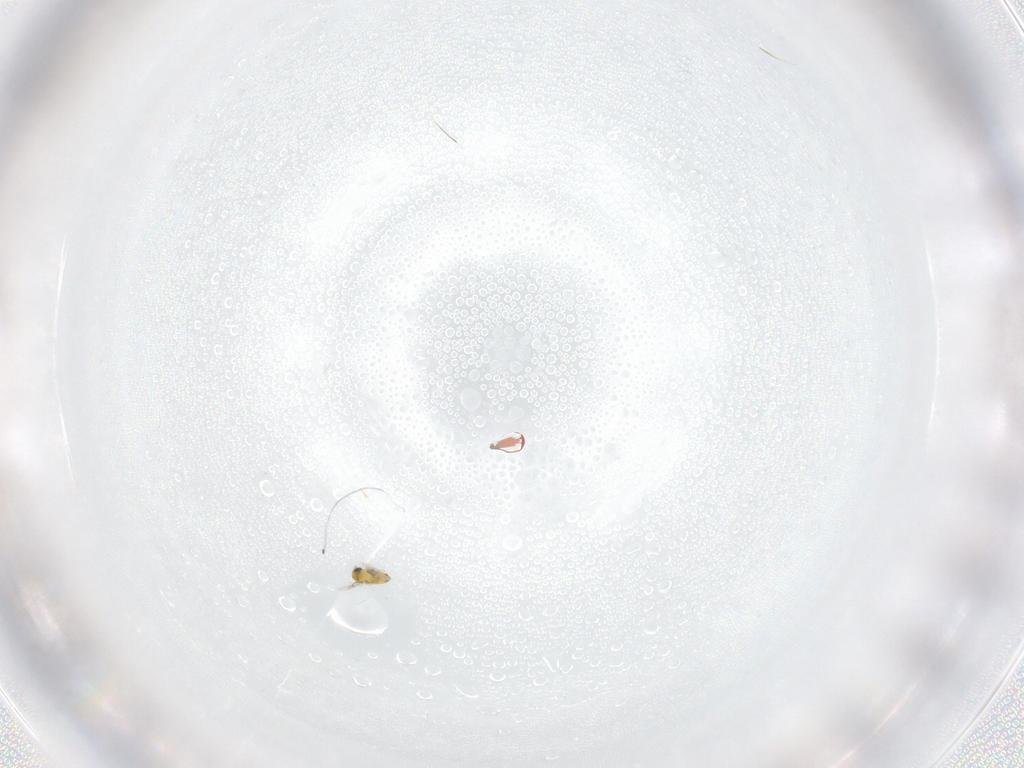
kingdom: Animalia
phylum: Arthropoda
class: Insecta
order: Hymenoptera
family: Trichogrammatidae
